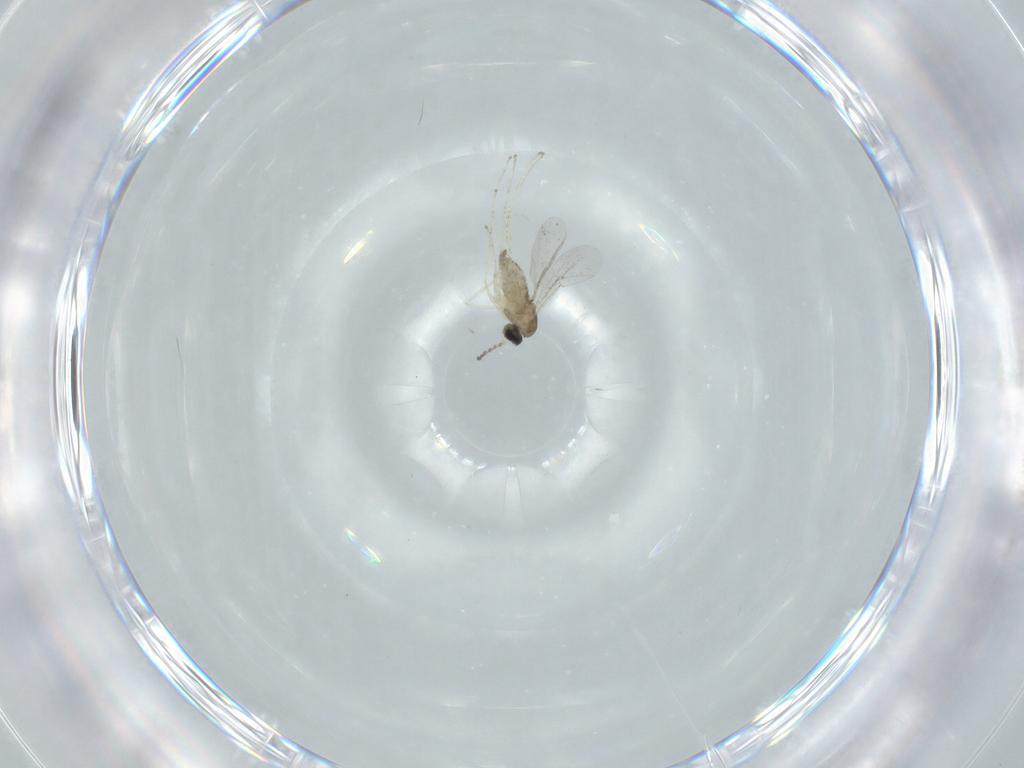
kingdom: Animalia
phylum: Arthropoda
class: Insecta
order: Diptera
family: Cecidomyiidae
